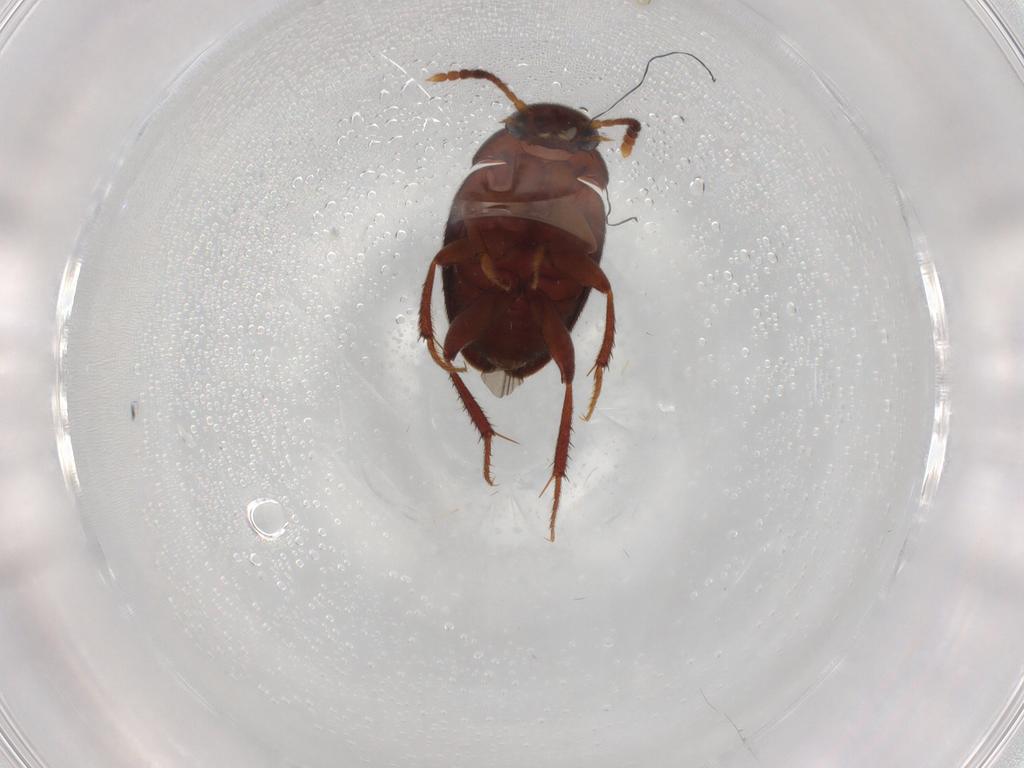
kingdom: Animalia
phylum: Arthropoda
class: Insecta
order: Coleoptera
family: Leiodidae
